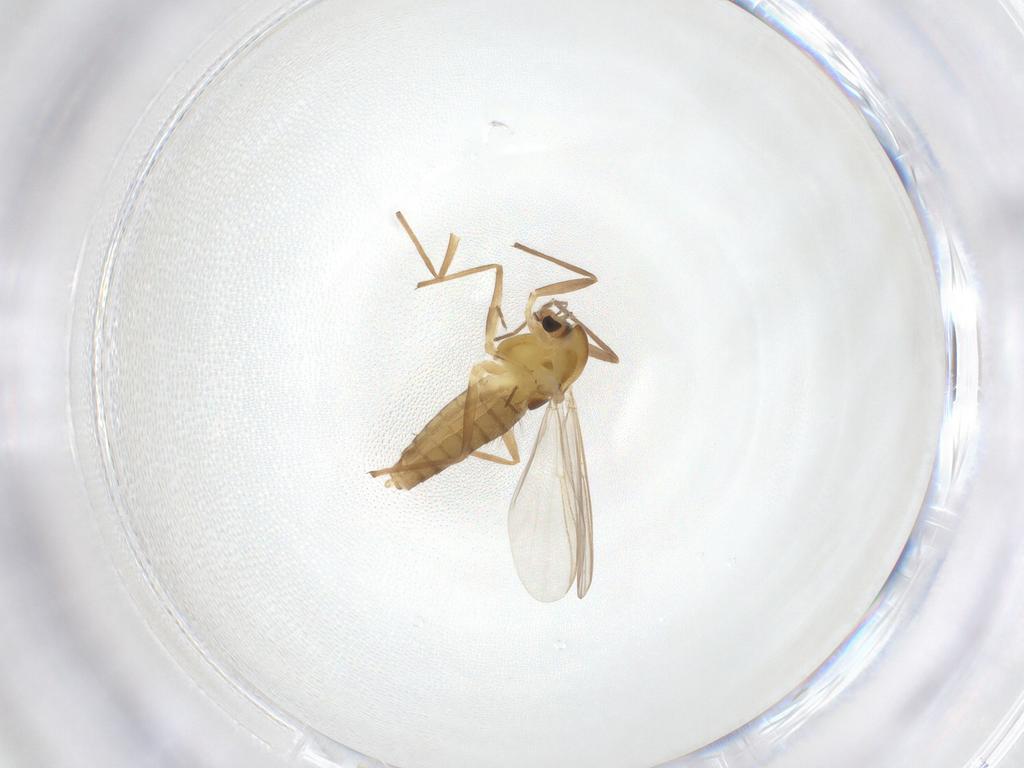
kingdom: Animalia
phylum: Arthropoda
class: Insecta
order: Diptera
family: Chironomidae
